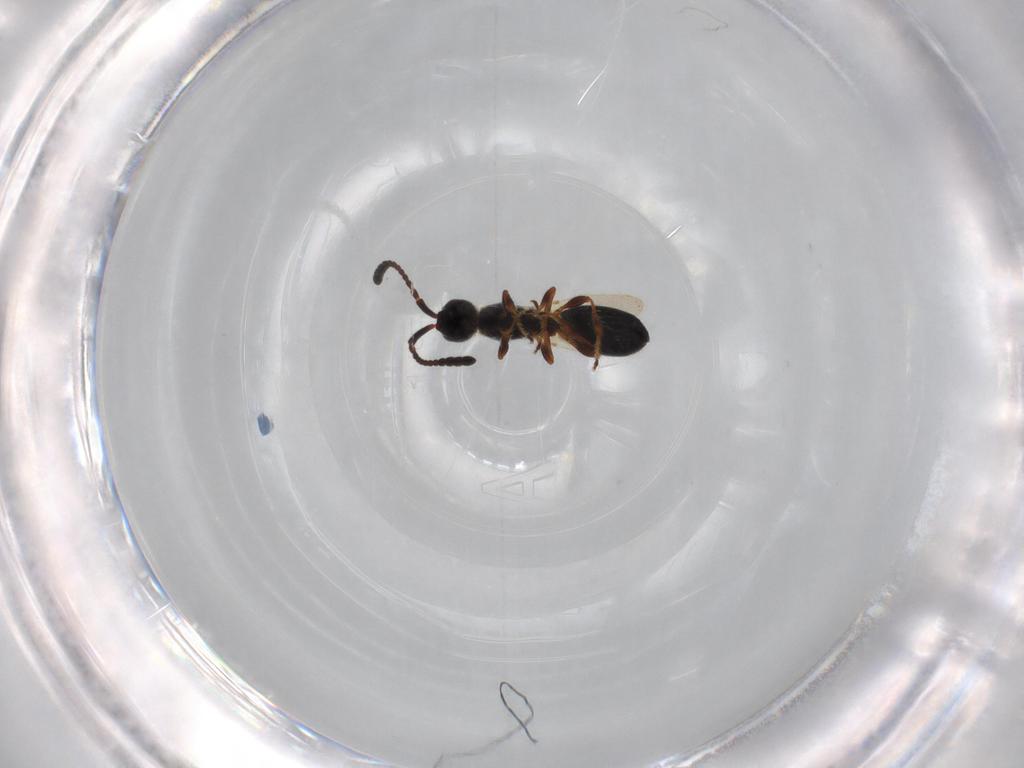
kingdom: Animalia
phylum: Arthropoda
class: Insecta
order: Hymenoptera
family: Diapriidae
